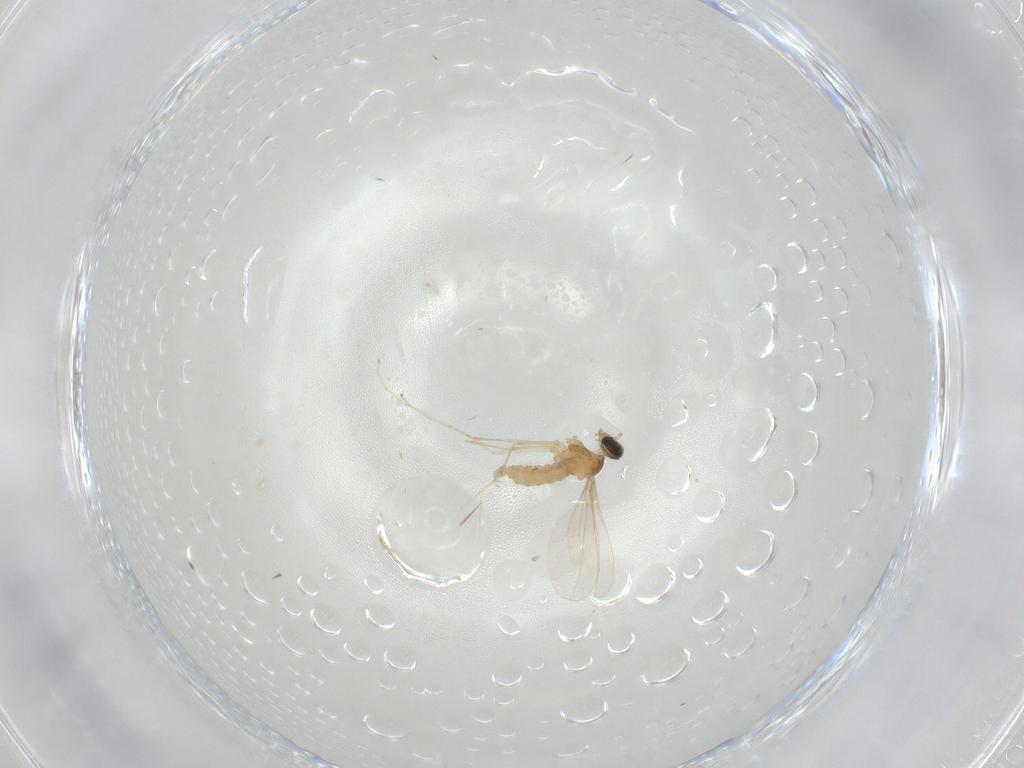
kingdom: Animalia
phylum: Arthropoda
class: Insecta
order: Diptera
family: Cecidomyiidae
